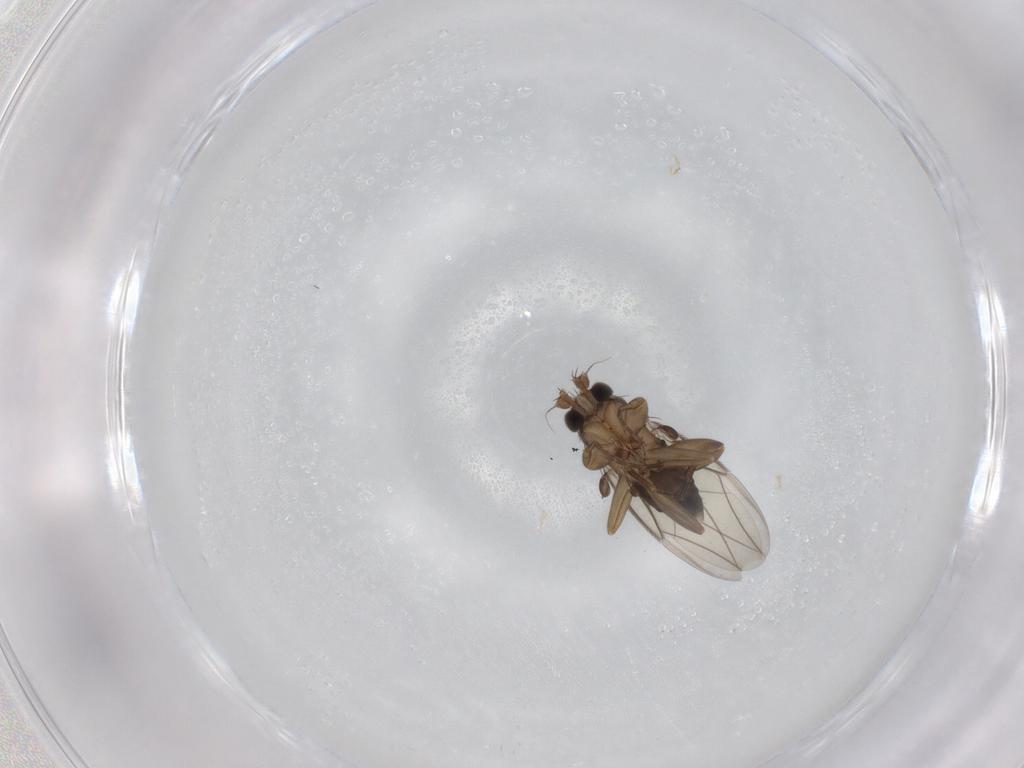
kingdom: Animalia
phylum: Arthropoda
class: Insecta
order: Diptera
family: Phoridae
